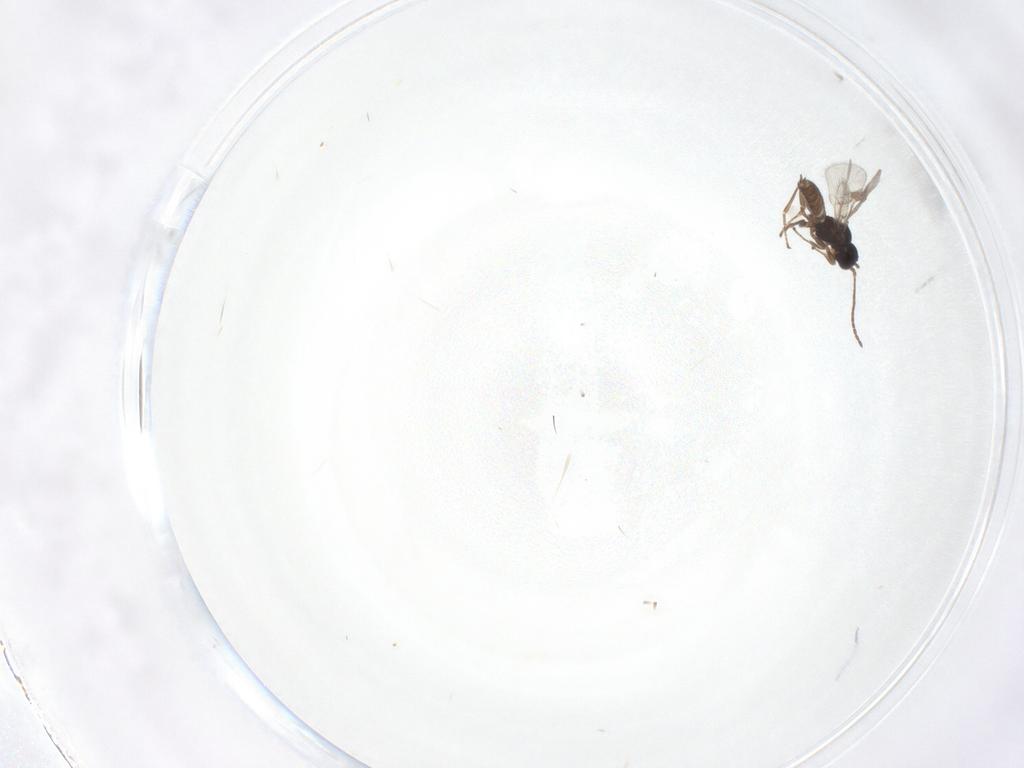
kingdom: Animalia
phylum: Arthropoda
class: Insecta
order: Hymenoptera
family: Braconidae
